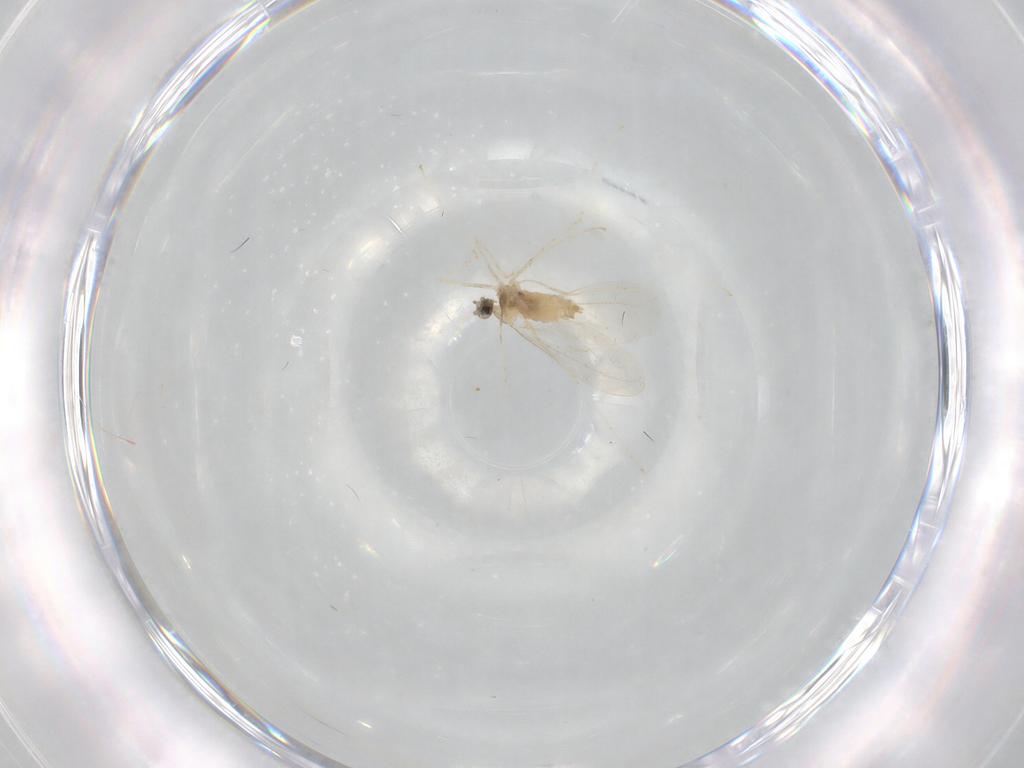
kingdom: Animalia
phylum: Arthropoda
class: Insecta
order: Diptera
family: Cecidomyiidae
